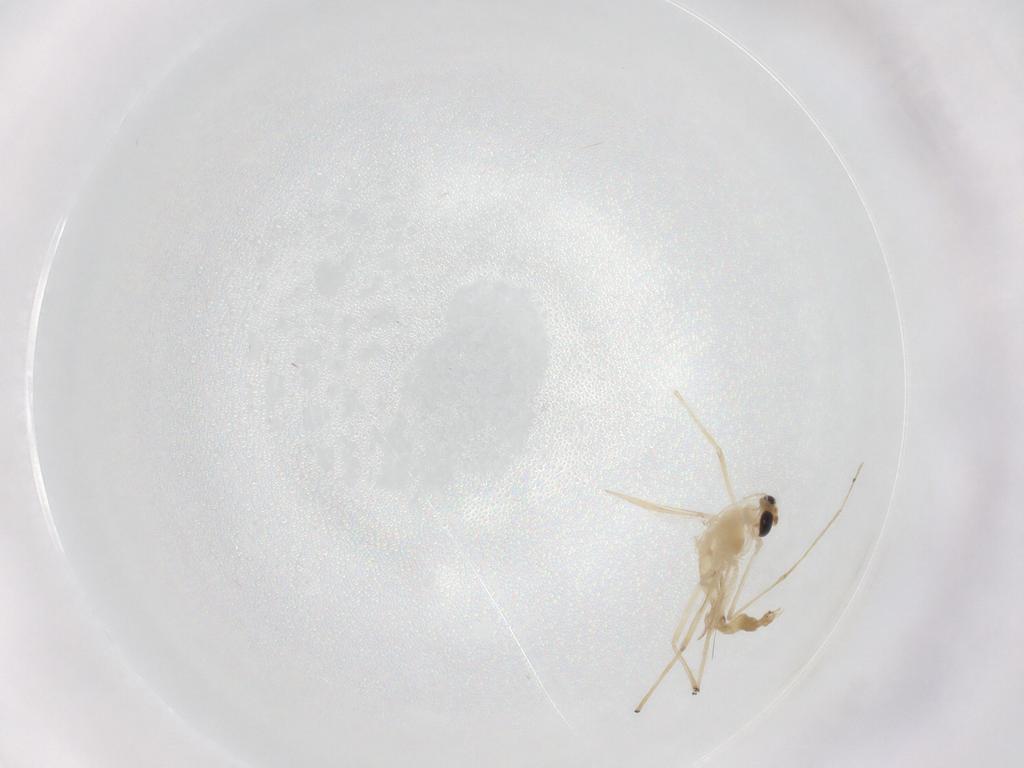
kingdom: Animalia
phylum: Arthropoda
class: Insecta
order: Diptera
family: Chironomidae
